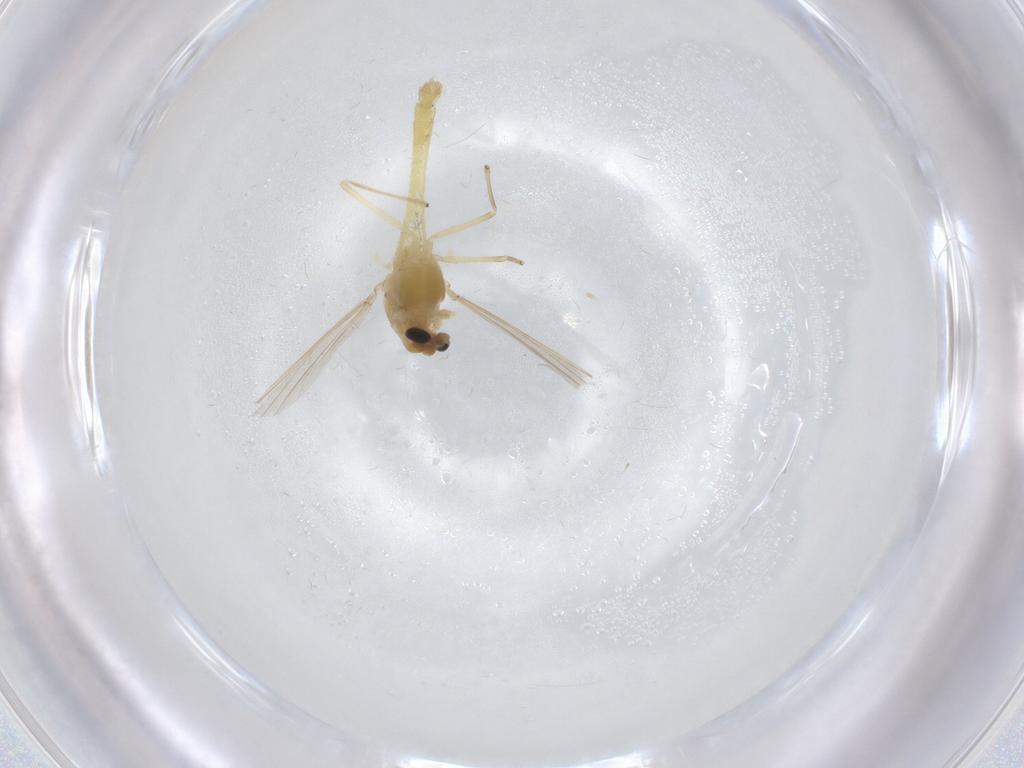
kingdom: Animalia
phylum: Arthropoda
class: Insecta
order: Diptera
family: Chironomidae
